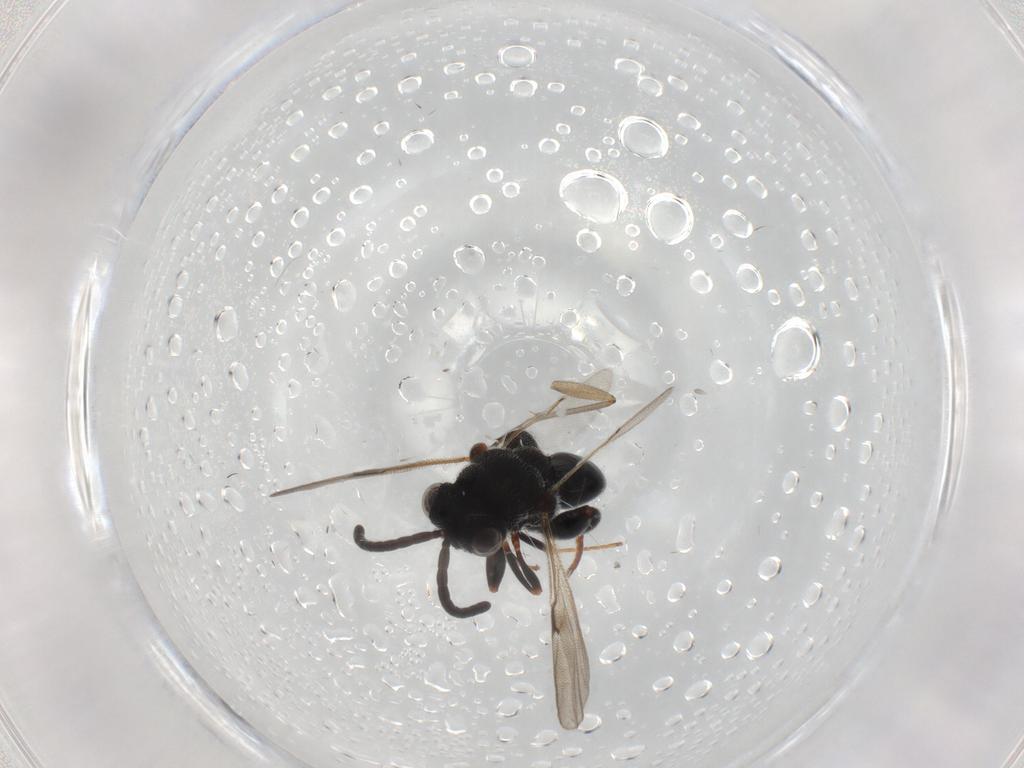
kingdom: Animalia
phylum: Arthropoda
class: Insecta
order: Hymenoptera
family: Chalcididae
